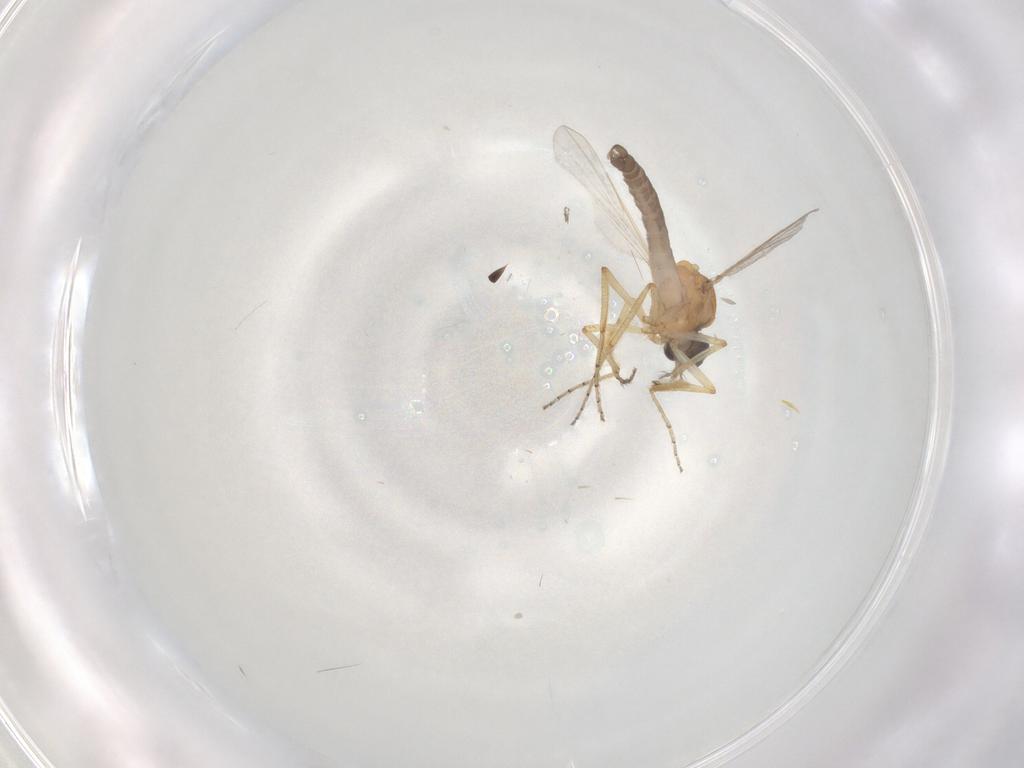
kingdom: Animalia
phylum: Arthropoda
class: Insecta
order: Diptera
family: Ceratopogonidae
